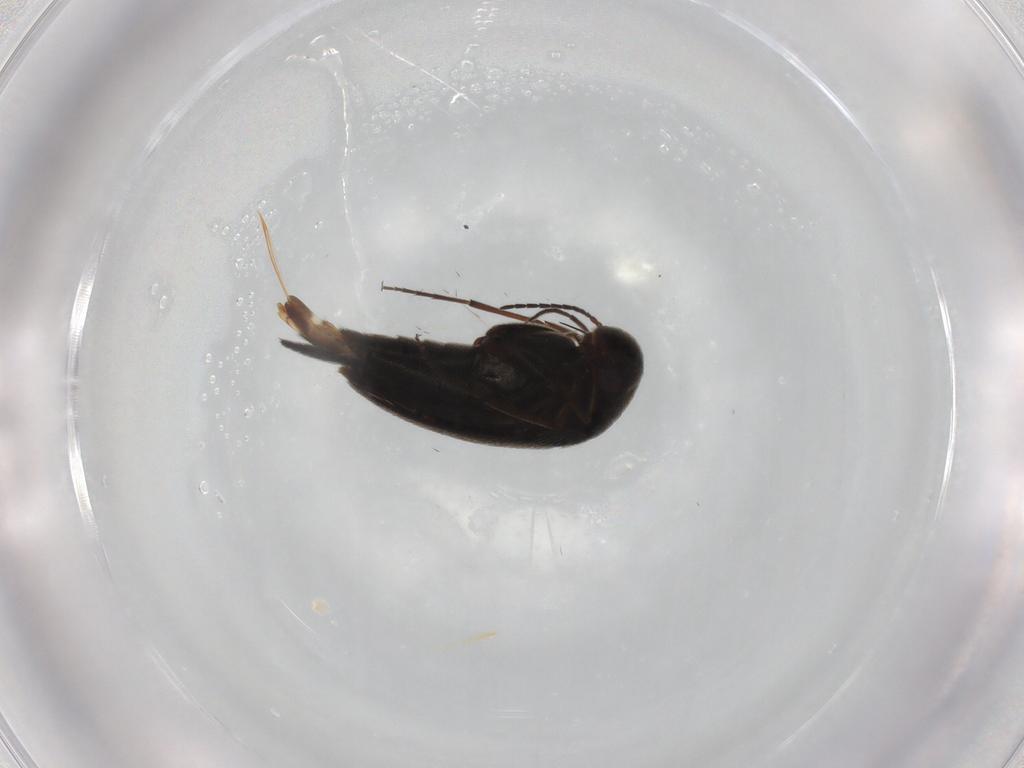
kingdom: Animalia
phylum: Arthropoda
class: Insecta
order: Coleoptera
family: Mordellidae
